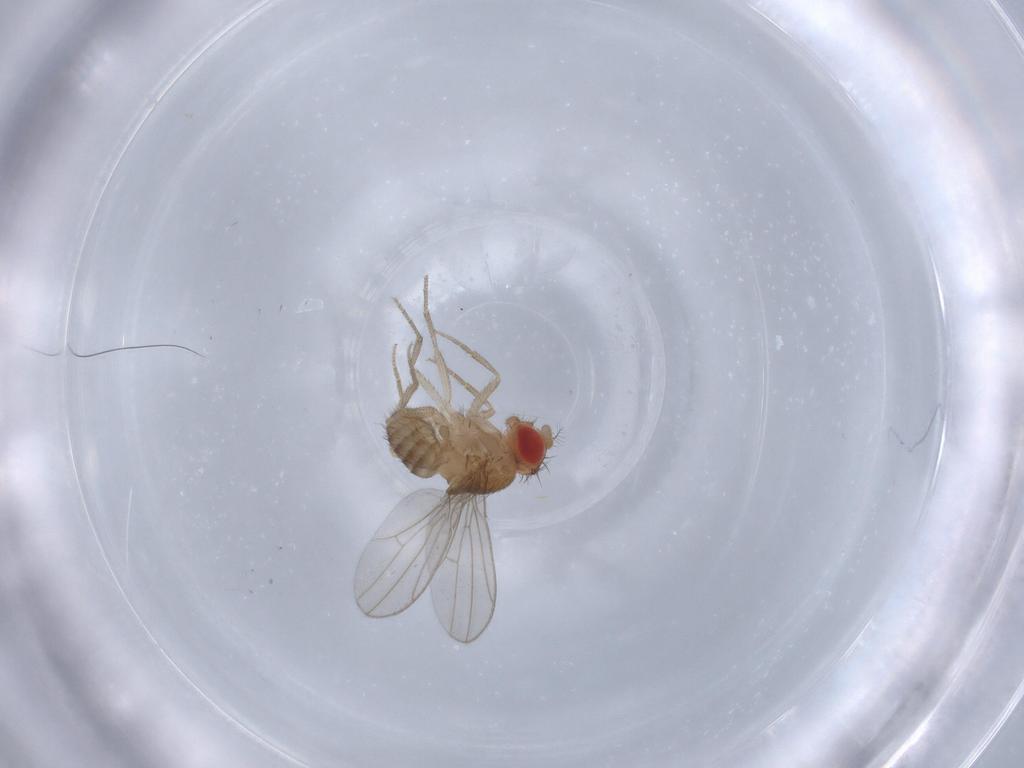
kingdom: Animalia
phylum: Arthropoda
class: Insecta
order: Diptera
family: Drosophilidae
